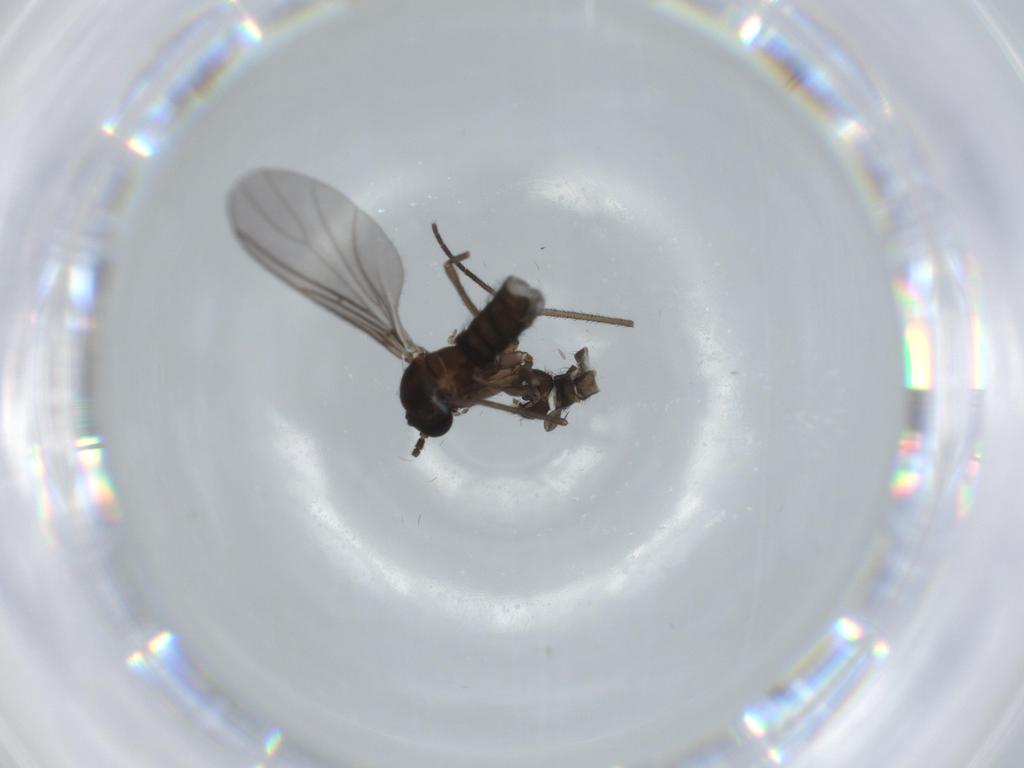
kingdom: Animalia
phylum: Arthropoda
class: Insecta
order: Diptera
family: Sciaridae
